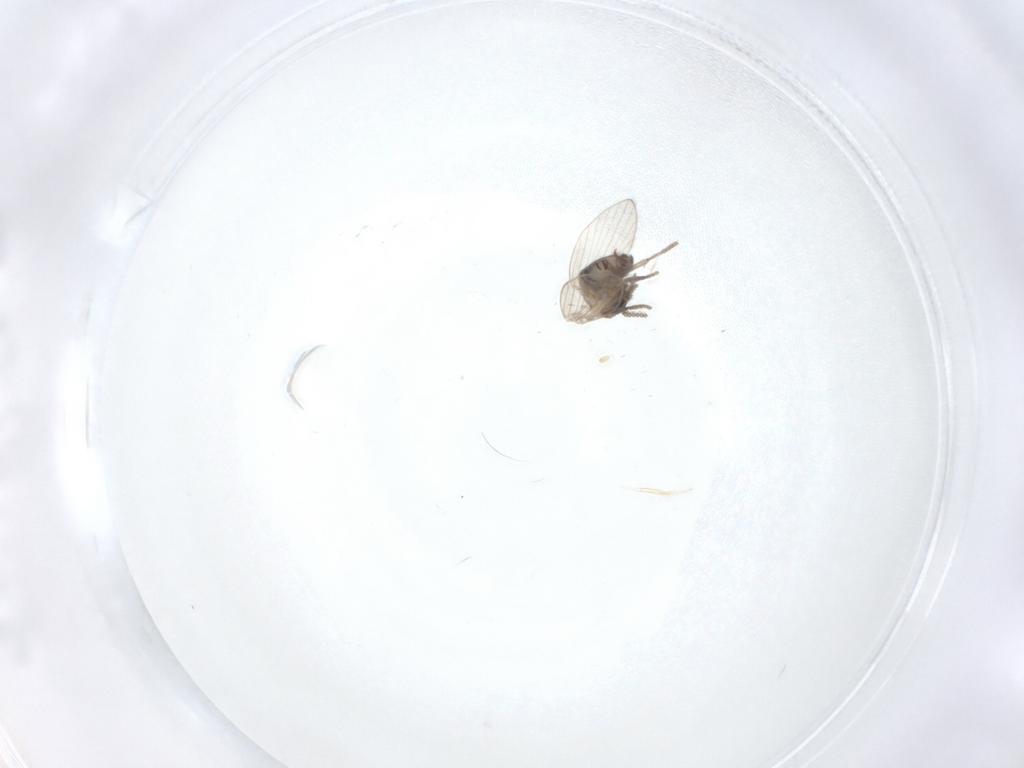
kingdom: Animalia
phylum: Arthropoda
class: Insecta
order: Diptera
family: Psychodidae
